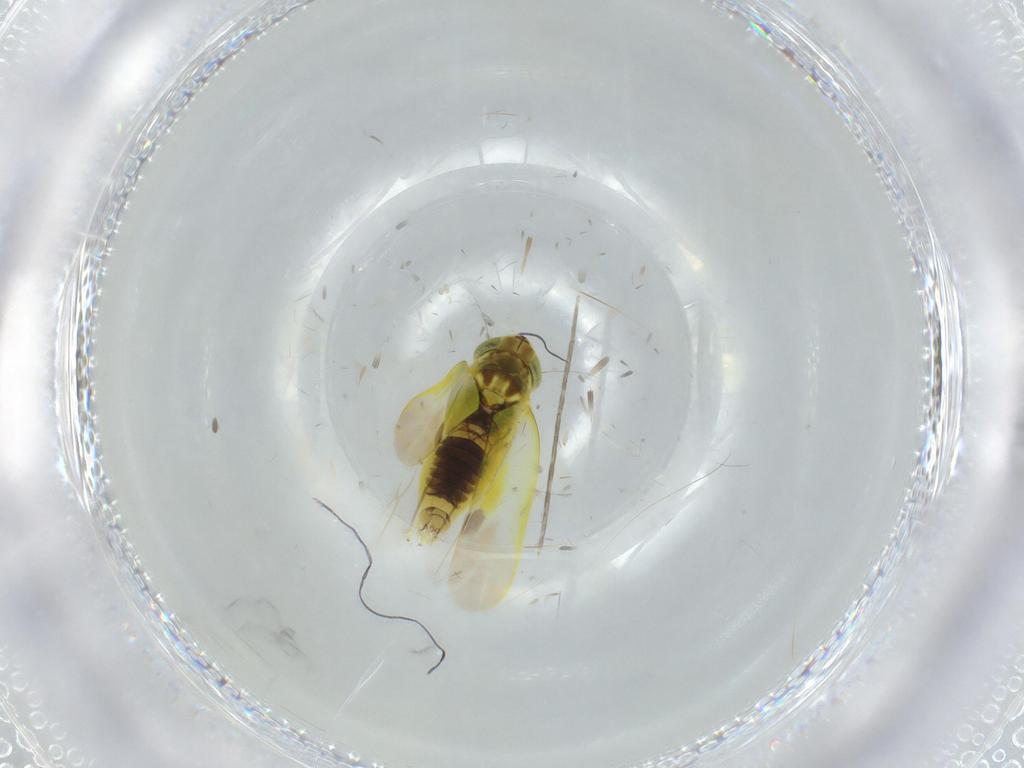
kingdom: Animalia
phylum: Arthropoda
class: Insecta
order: Hemiptera
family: Cicadellidae
